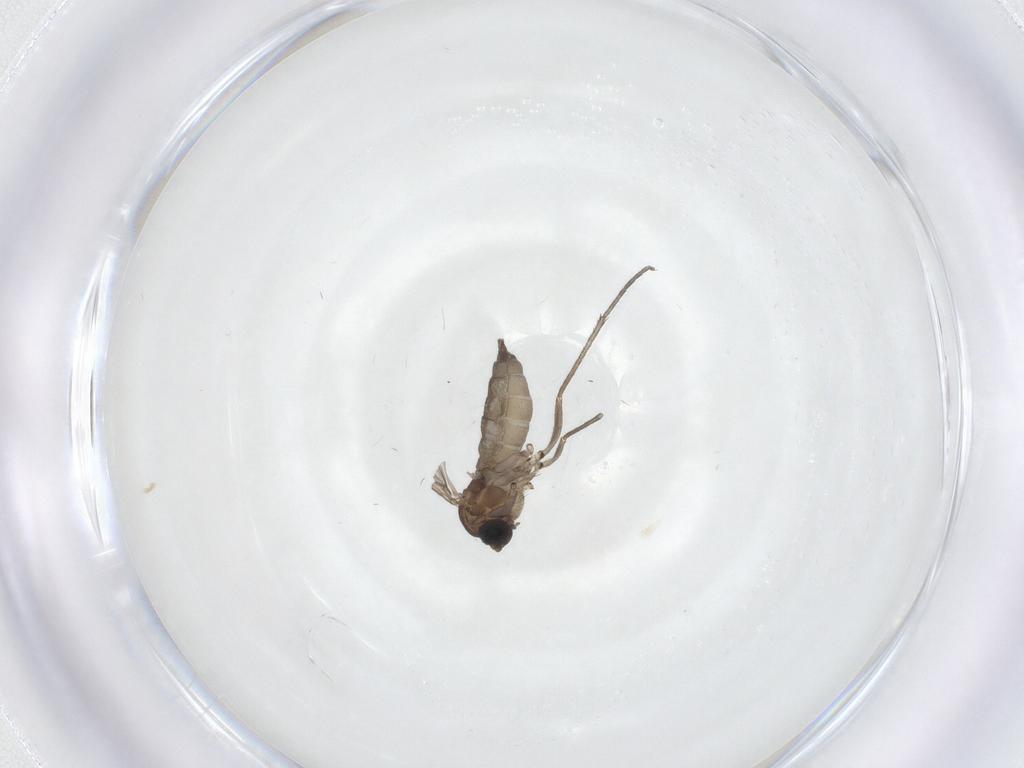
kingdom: Animalia
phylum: Arthropoda
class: Insecta
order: Diptera
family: Sciaridae
